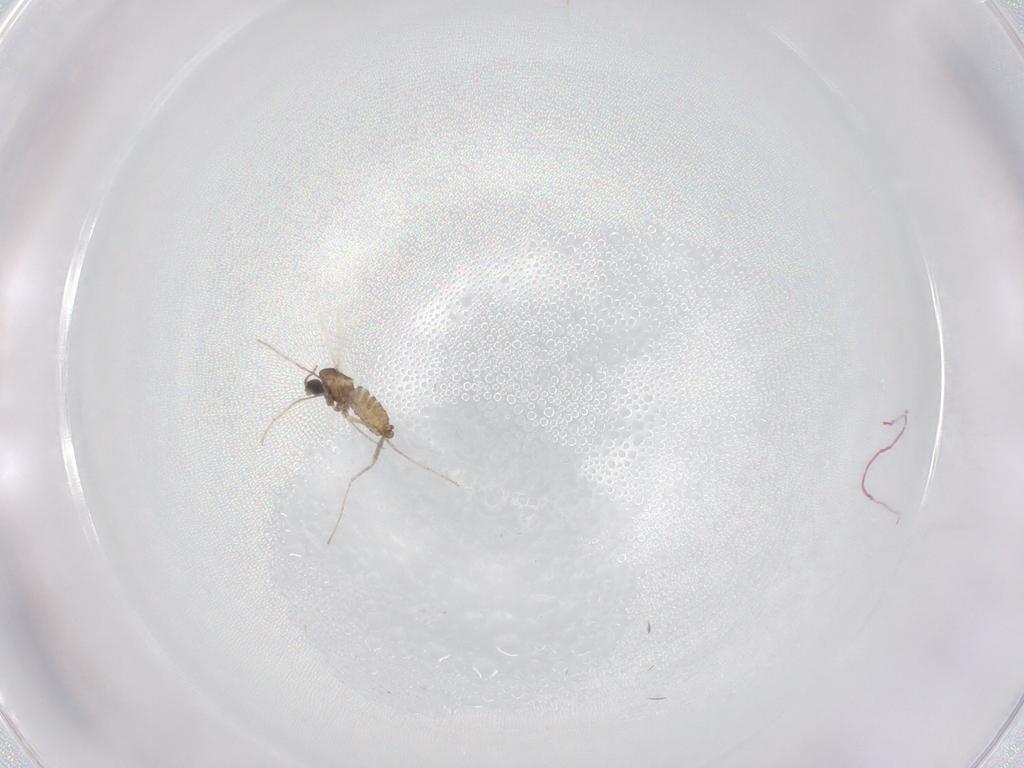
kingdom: Animalia
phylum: Arthropoda
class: Insecta
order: Diptera
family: Cecidomyiidae
